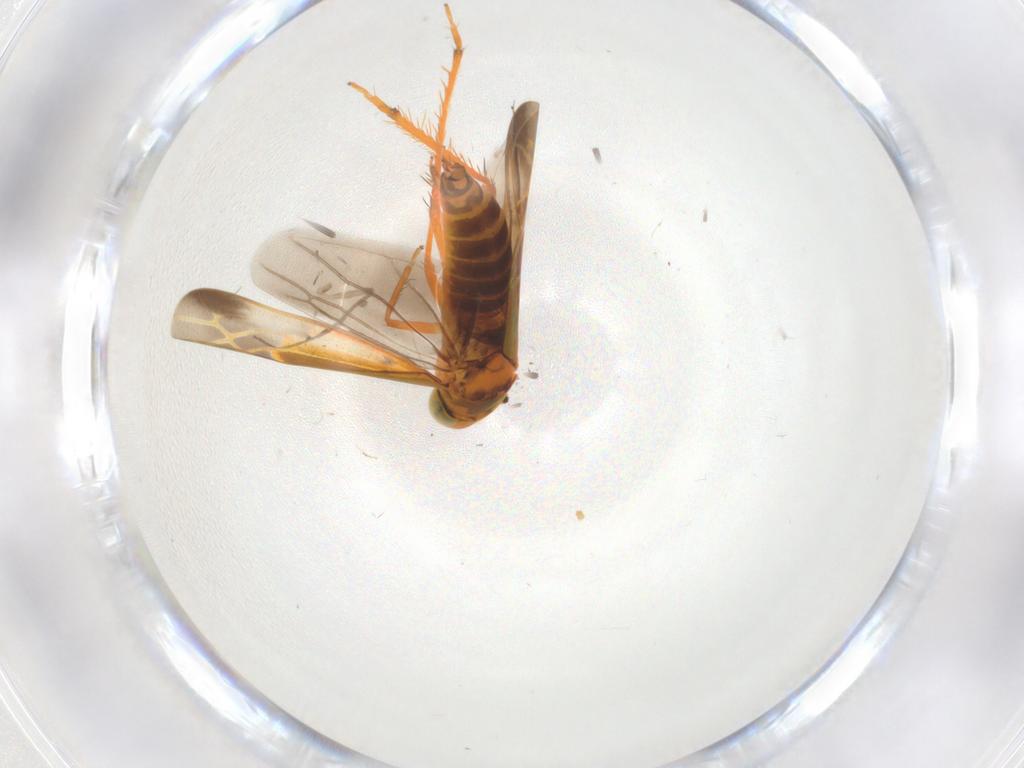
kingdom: Animalia
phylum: Arthropoda
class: Insecta
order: Hemiptera
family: Cicadellidae
